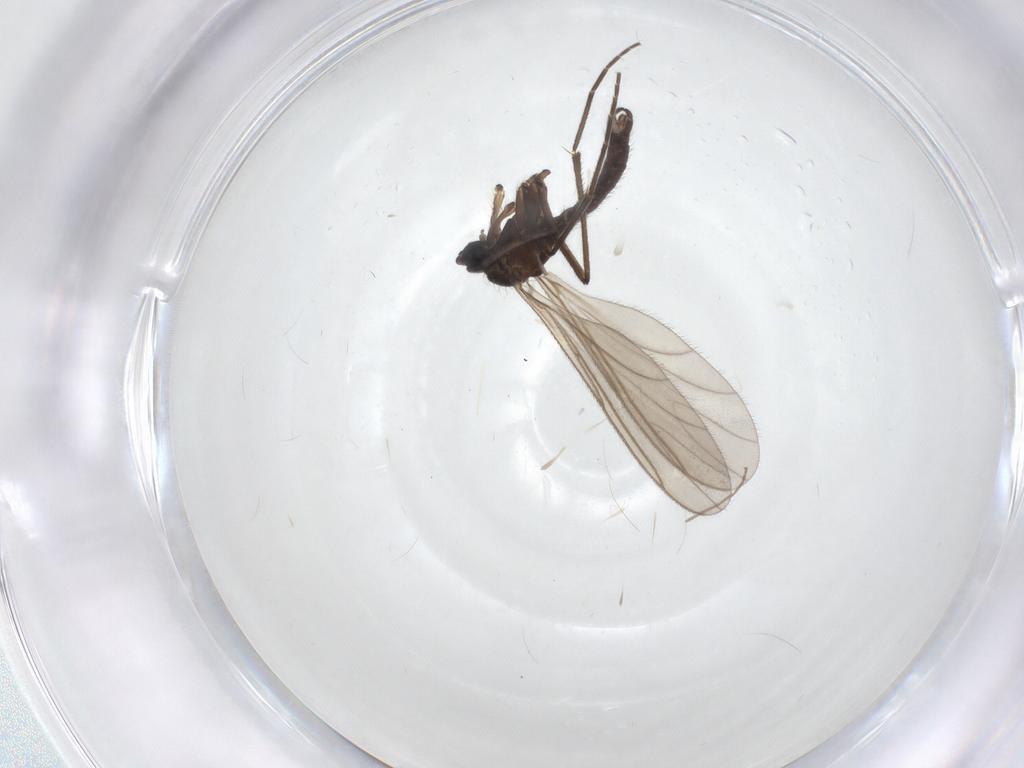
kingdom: Animalia
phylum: Arthropoda
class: Insecta
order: Diptera
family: Sciaridae
